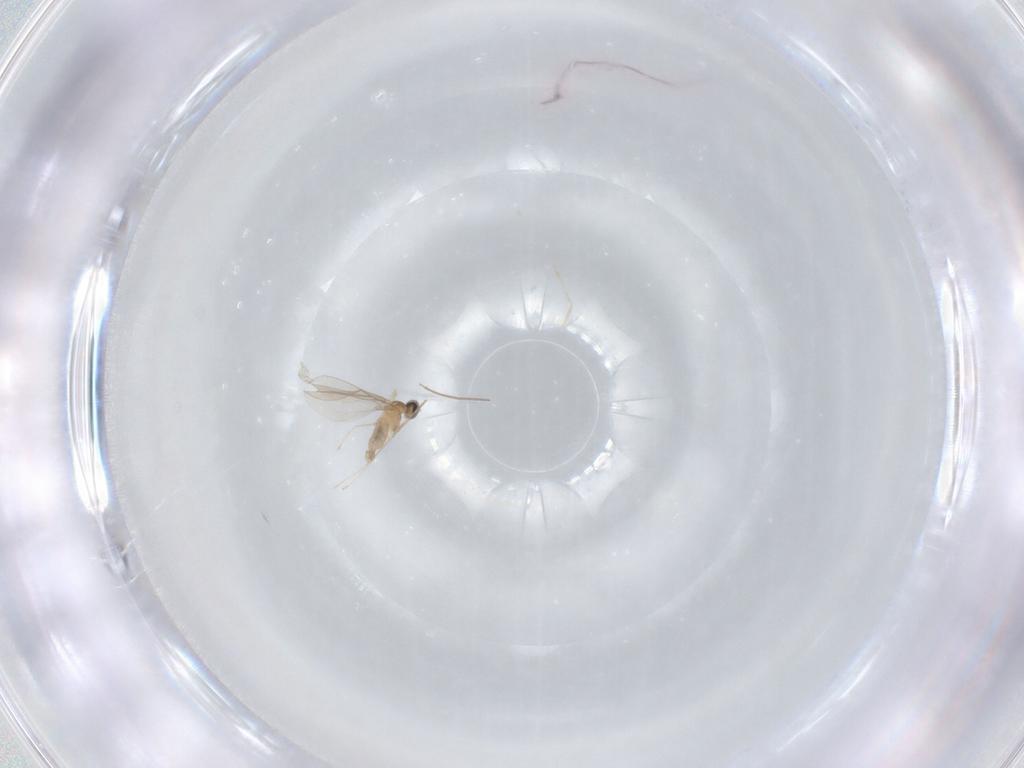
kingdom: Animalia
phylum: Arthropoda
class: Insecta
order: Diptera
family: Cecidomyiidae
